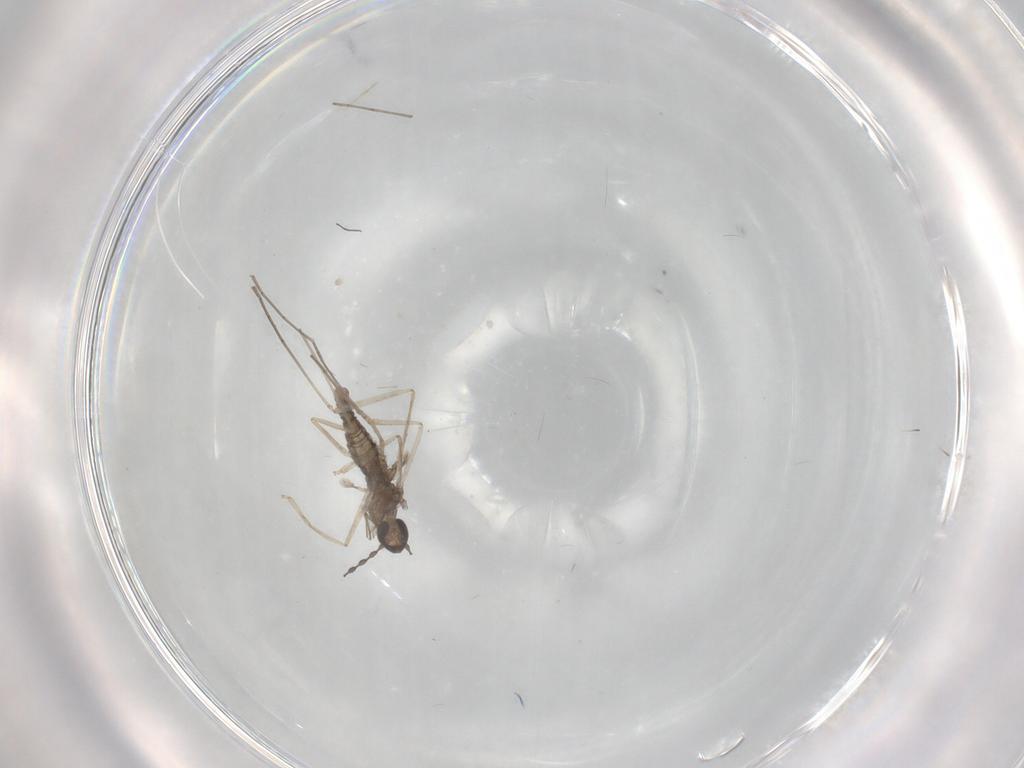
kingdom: Animalia
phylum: Arthropoda
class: Insecta
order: Diptera
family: Cecidomyiidae
